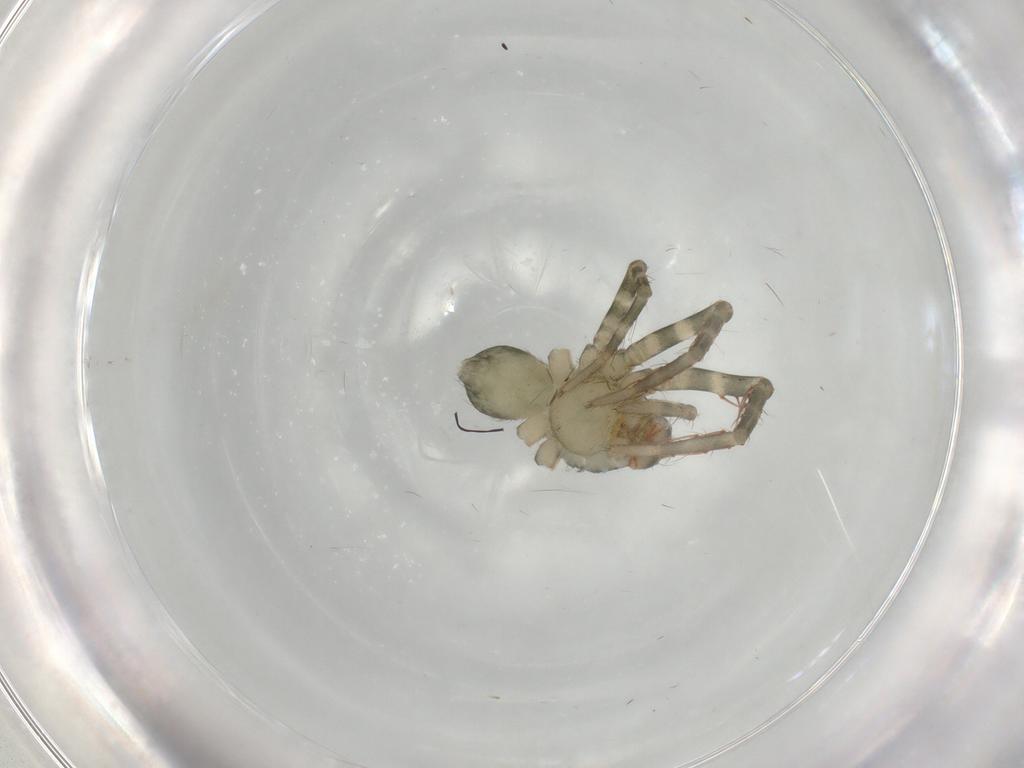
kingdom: Animalia
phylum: Arthropoda
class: Arachnida
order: Araneae
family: Ctenidae
